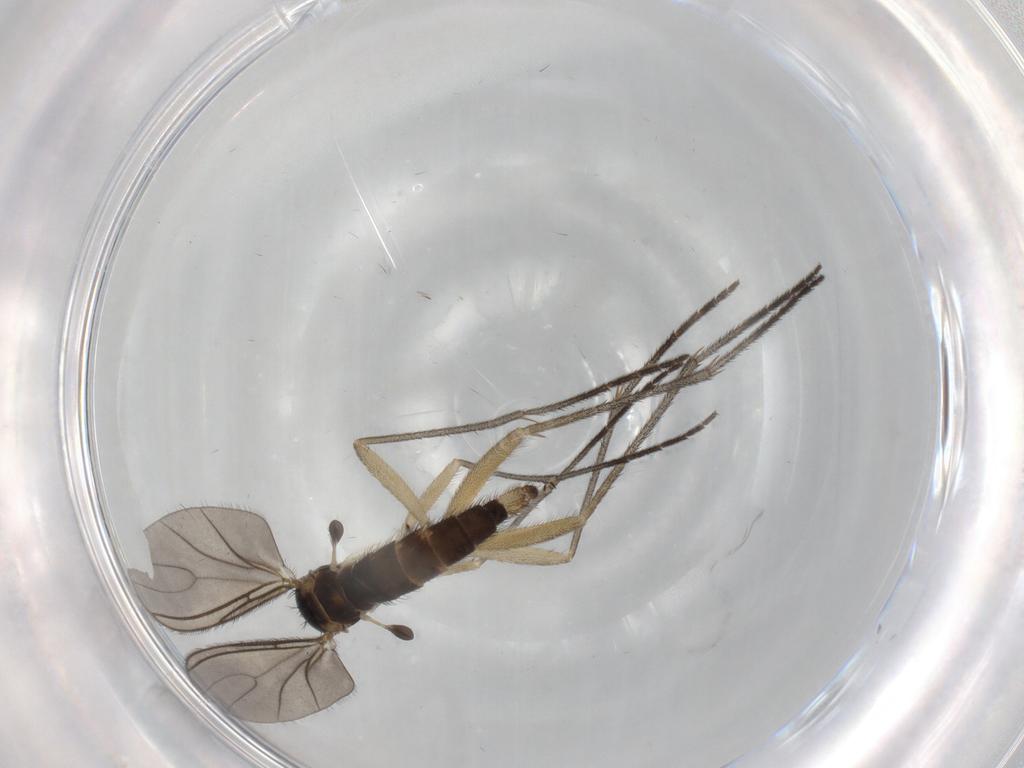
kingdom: Animalia
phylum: Arthropoda
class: Insecta
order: Diptera
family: Sciaridae
